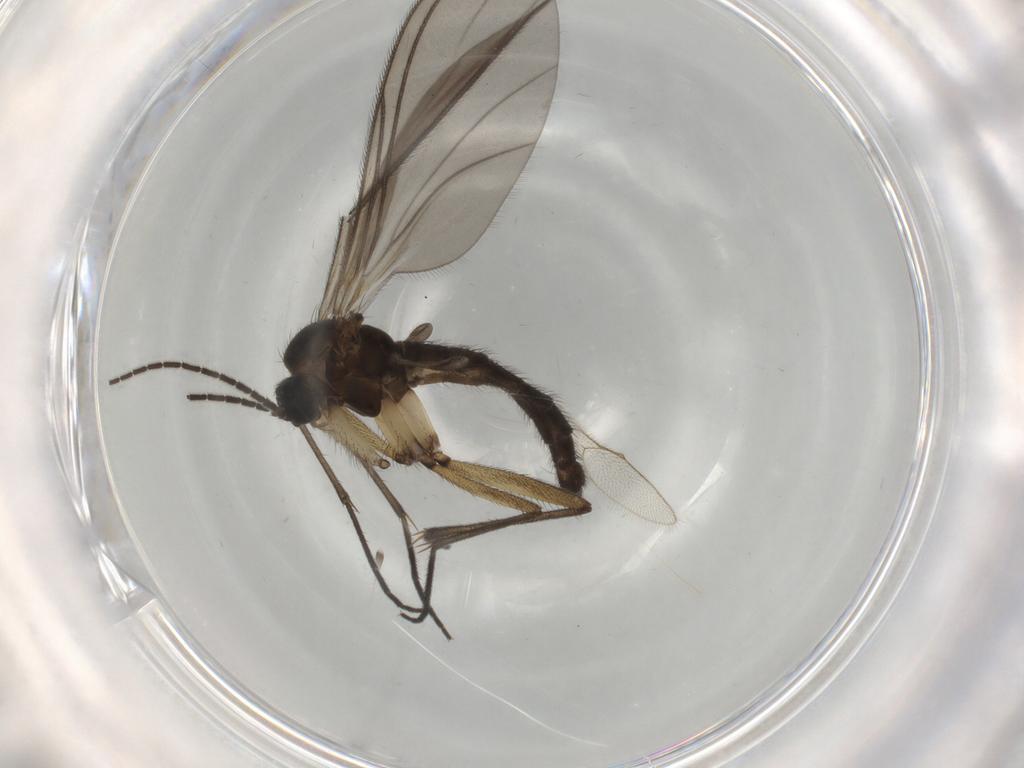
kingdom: Animalia
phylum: Arthropoda
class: Insecta
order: Diptera
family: Sciaridae
